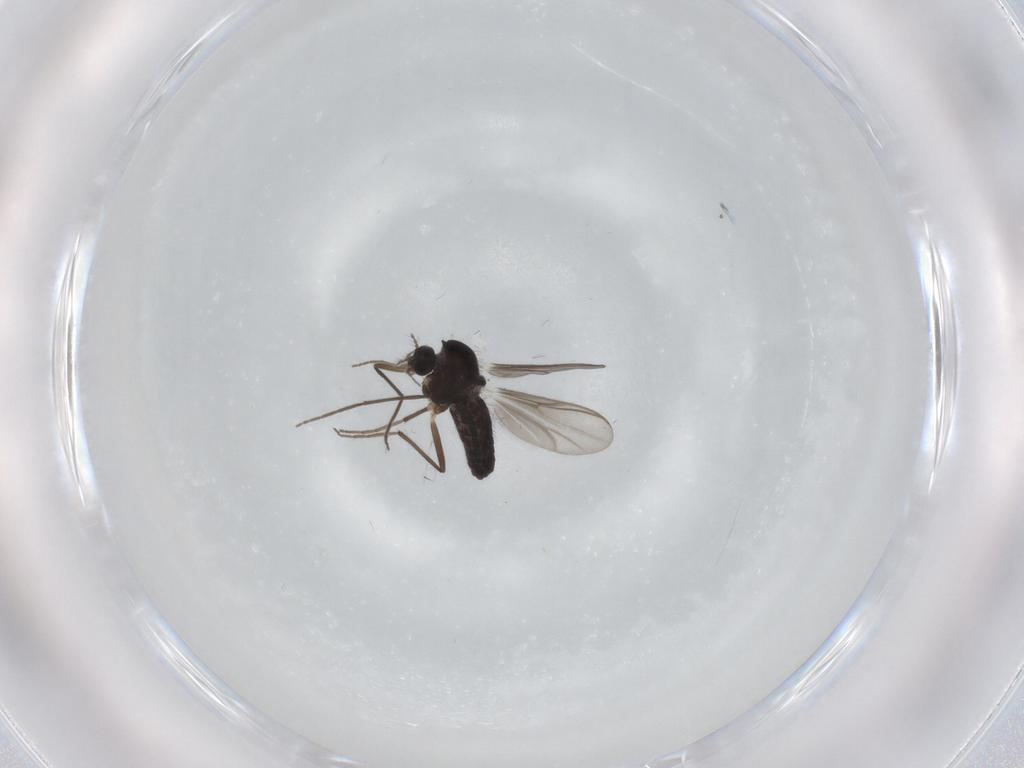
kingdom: Animalia
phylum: Arthropoda
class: Insecta
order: Diptera
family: Chironomidae
